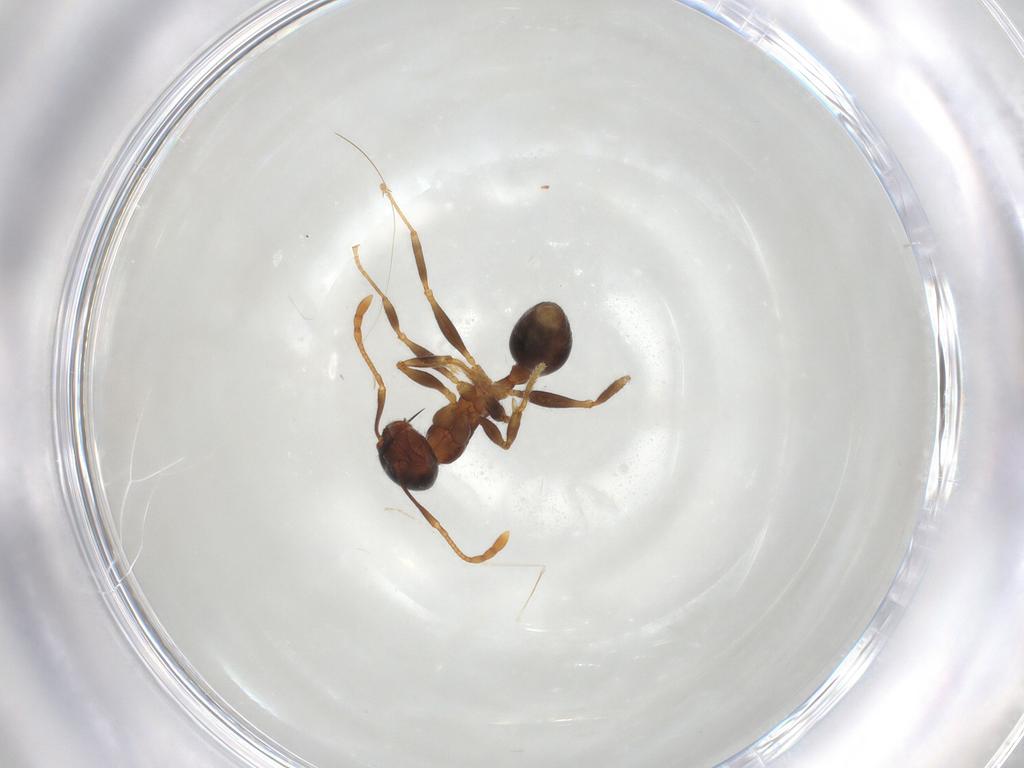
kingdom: Animalia
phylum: Arthropoda
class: Insecta
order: Hymenoptera
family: Formicidae
